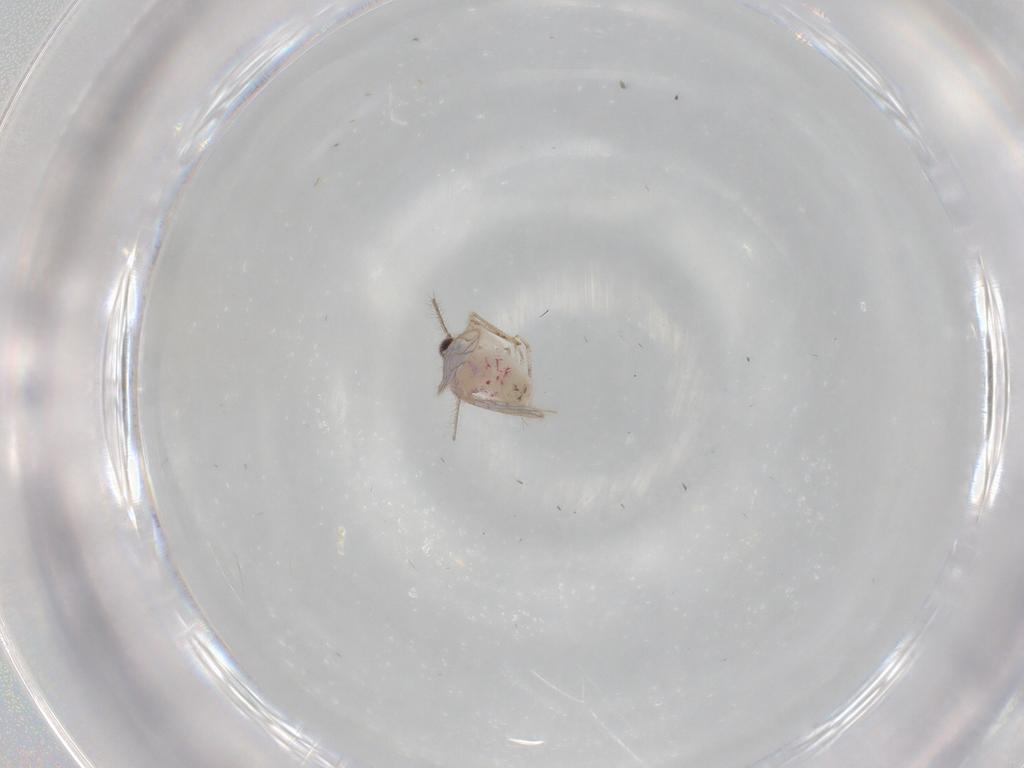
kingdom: Animalia
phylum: Arthropoda
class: Insecta
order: Psocodea
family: Caeciliusidae
